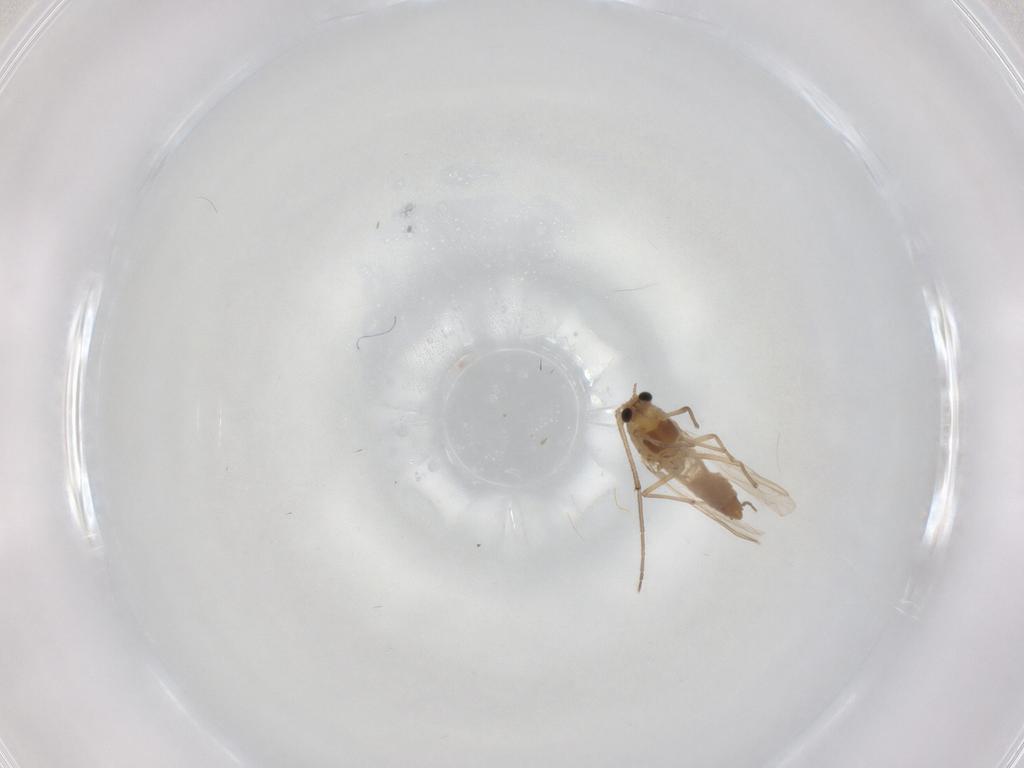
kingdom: Animalia
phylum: Arthropoda
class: Insecta
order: Diptera
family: Chironomidae
